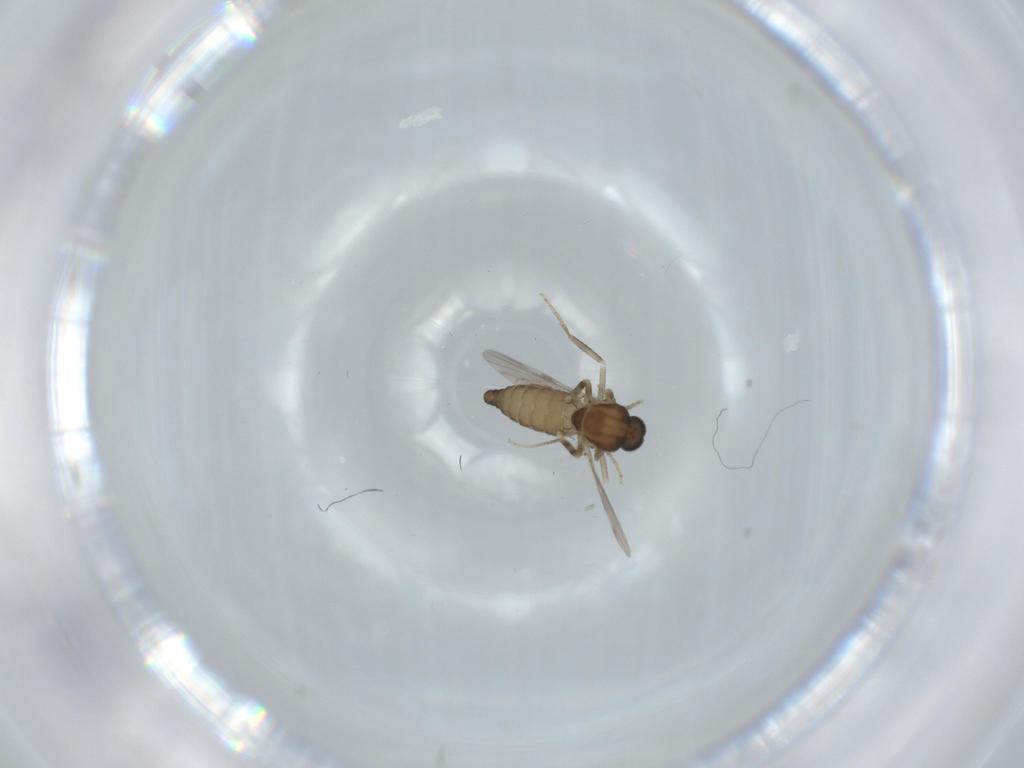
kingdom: Animalia
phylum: Arthropoda
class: Insecta
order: Diptera
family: Ceratopogonidae
